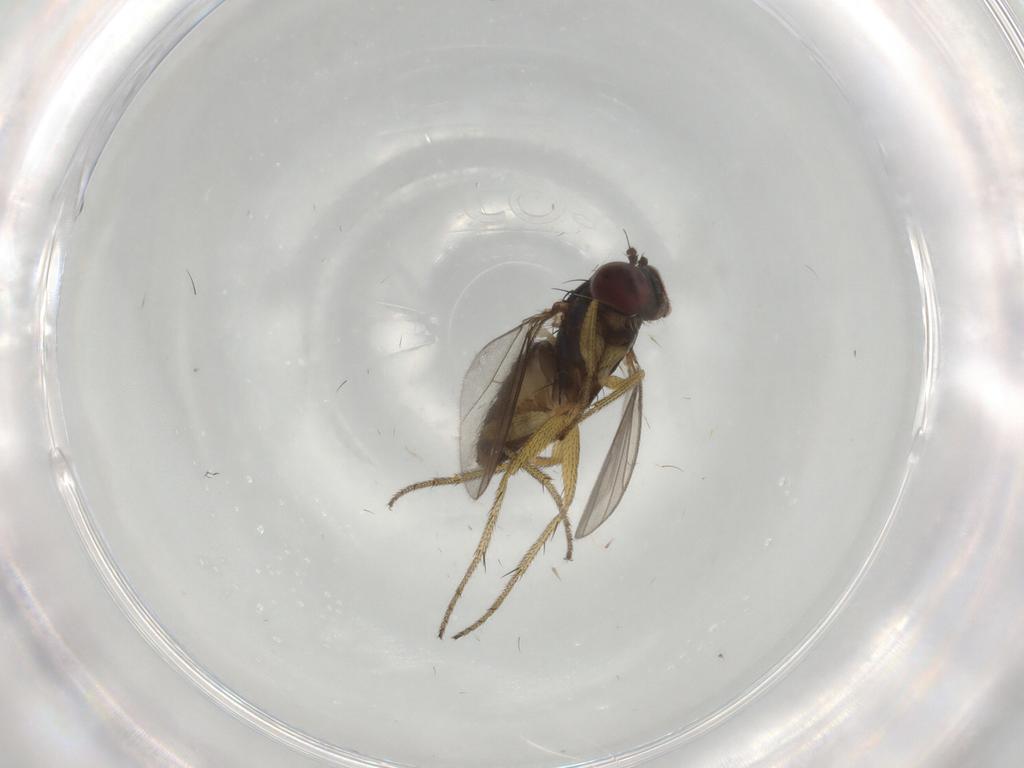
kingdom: Animalia
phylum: Arthropoda
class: Insecta
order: Diptera
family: Dolichopodidae
